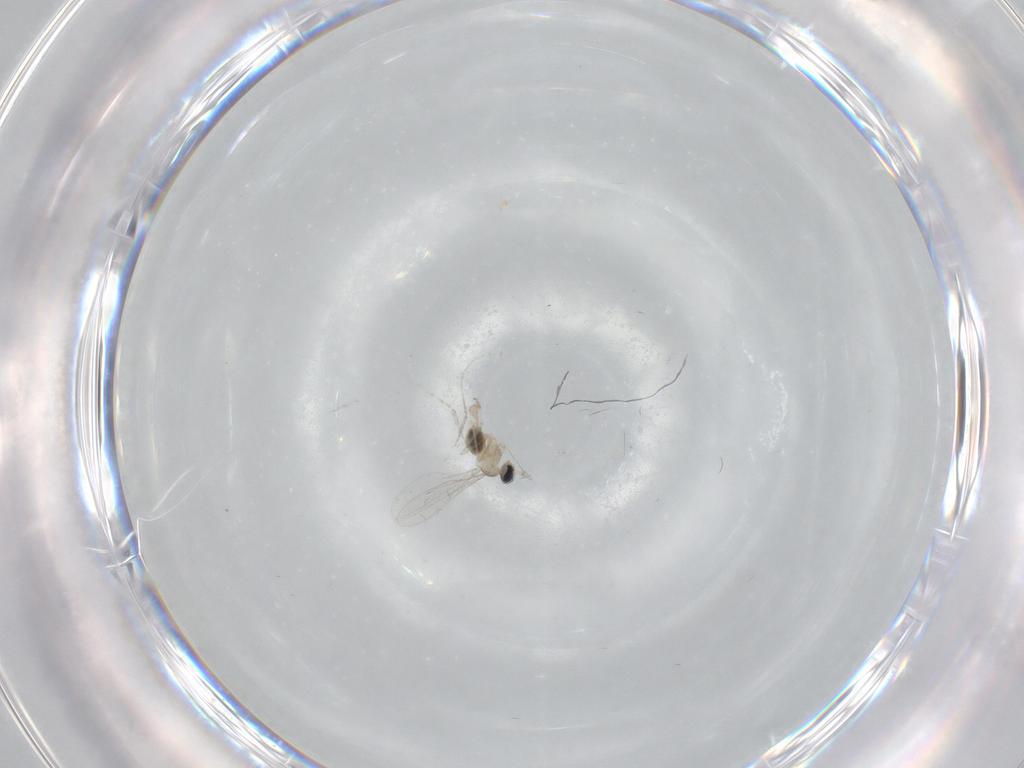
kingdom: Animalia
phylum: Arthropoda
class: Insecta
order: Diptera
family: Cecidomyiidae
